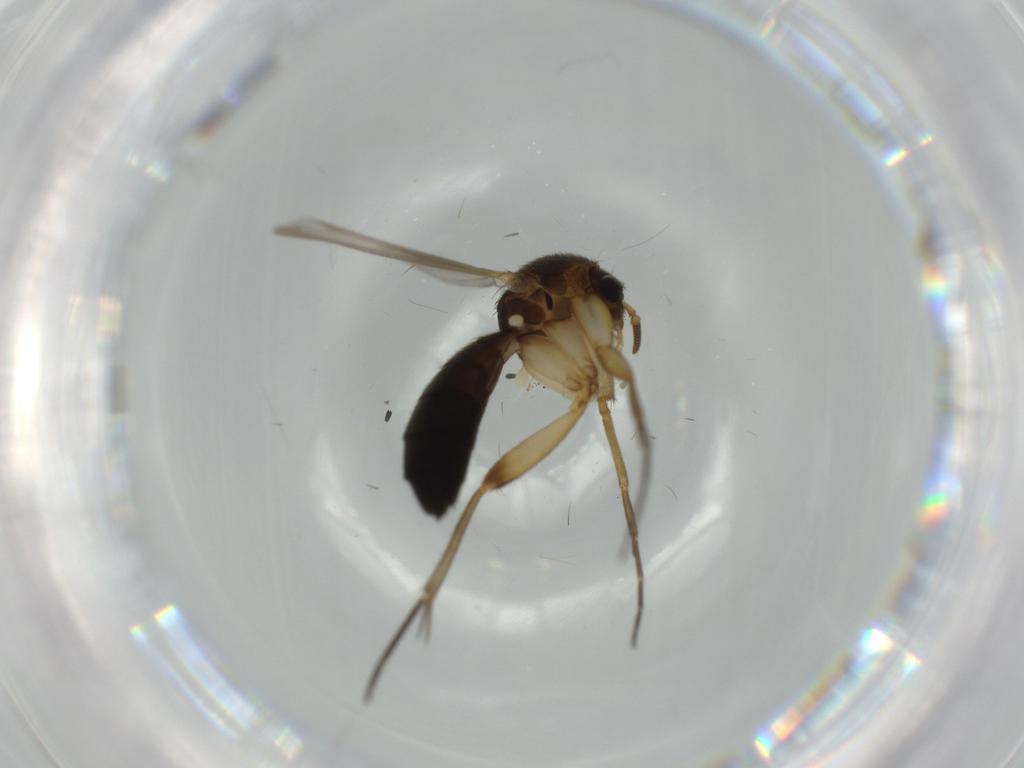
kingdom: Animalia
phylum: Arthropoda
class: Insecta
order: Diptera
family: Mycetophilidae
